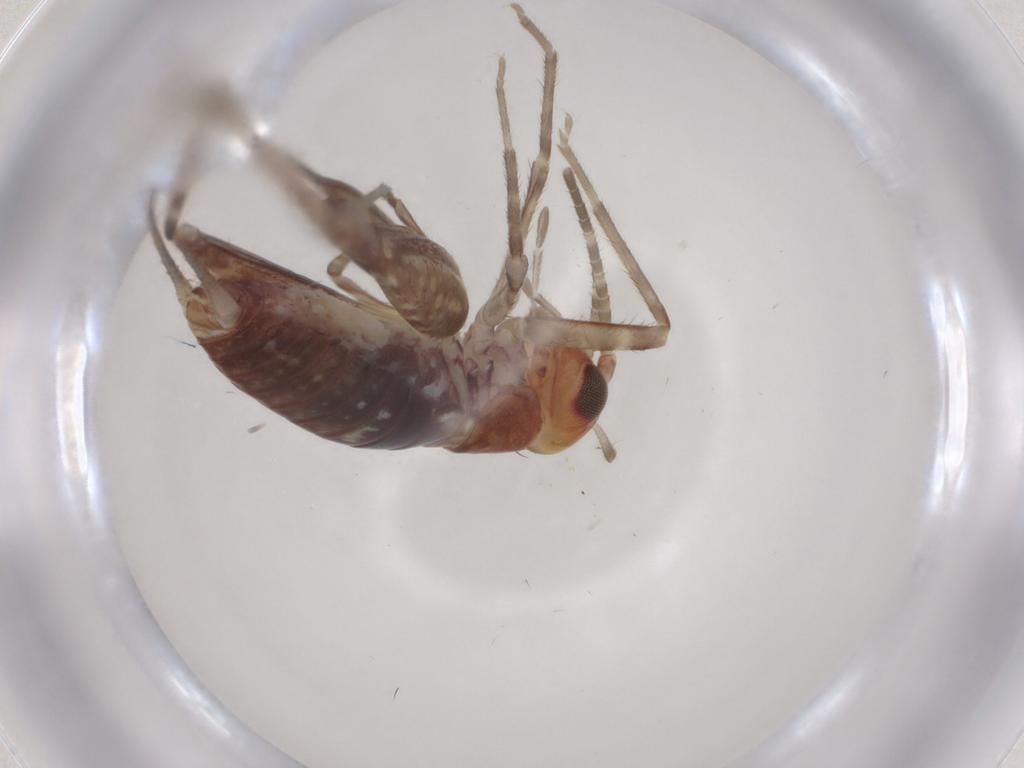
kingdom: Animalia
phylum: Arthropoda
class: Insecta
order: Orthoptera
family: Gryllidae
